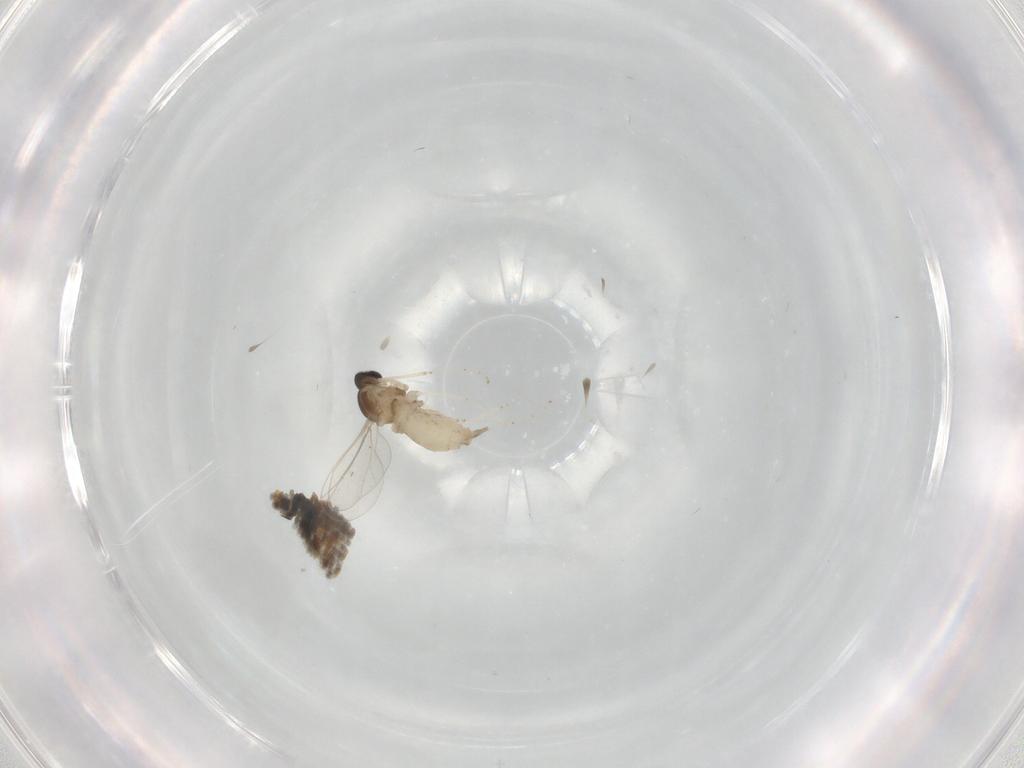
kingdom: Animalia
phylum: Arthropoda
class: Insecta
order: Diptera
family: Cecidomyiidae
